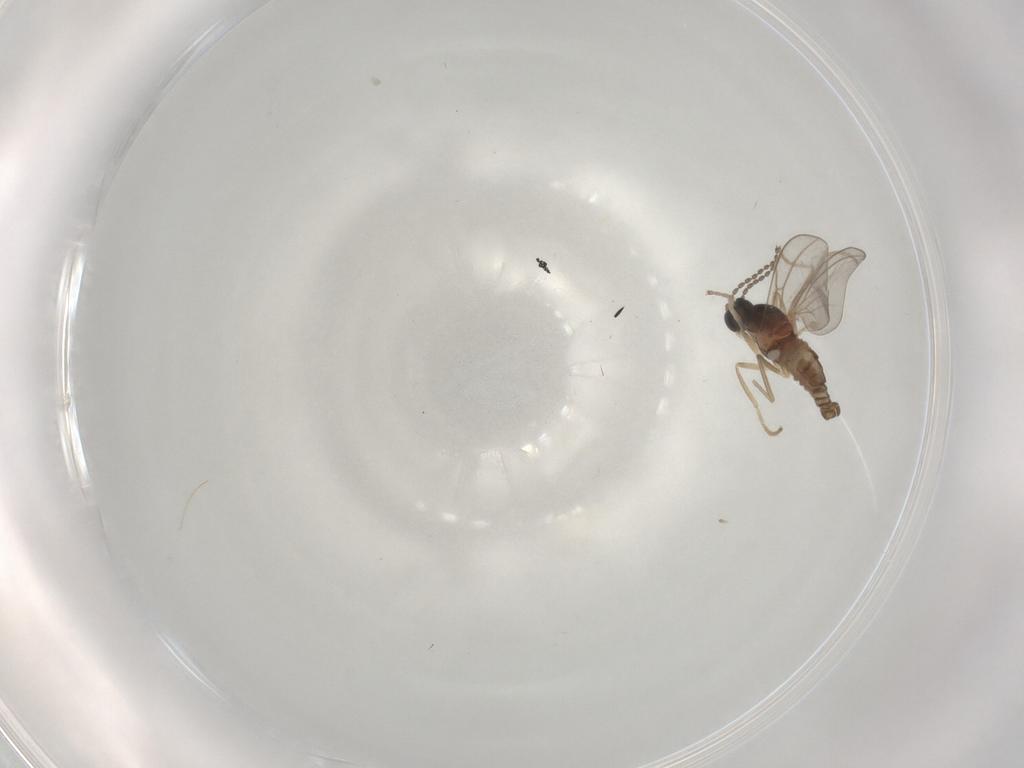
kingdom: Animalia
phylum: Arthropoda
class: Insecta
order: Diptera
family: Cecidomyiidae
